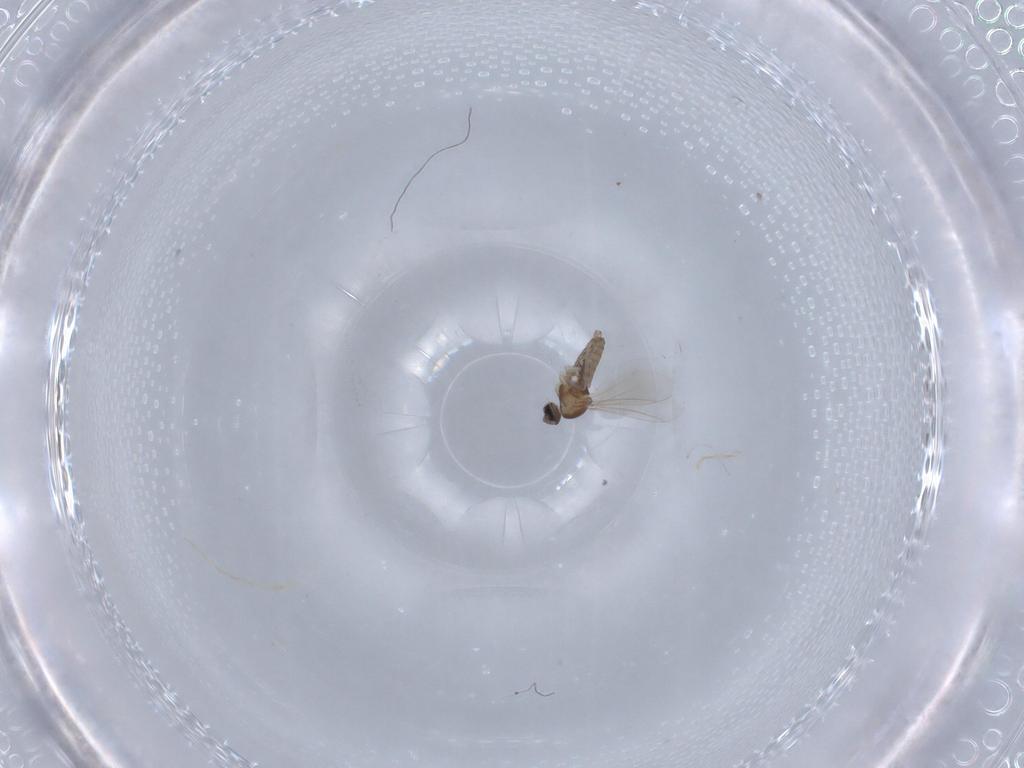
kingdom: Animalia
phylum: Arthropoda
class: Insecta
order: Diptera
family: Cecidomyiidae
